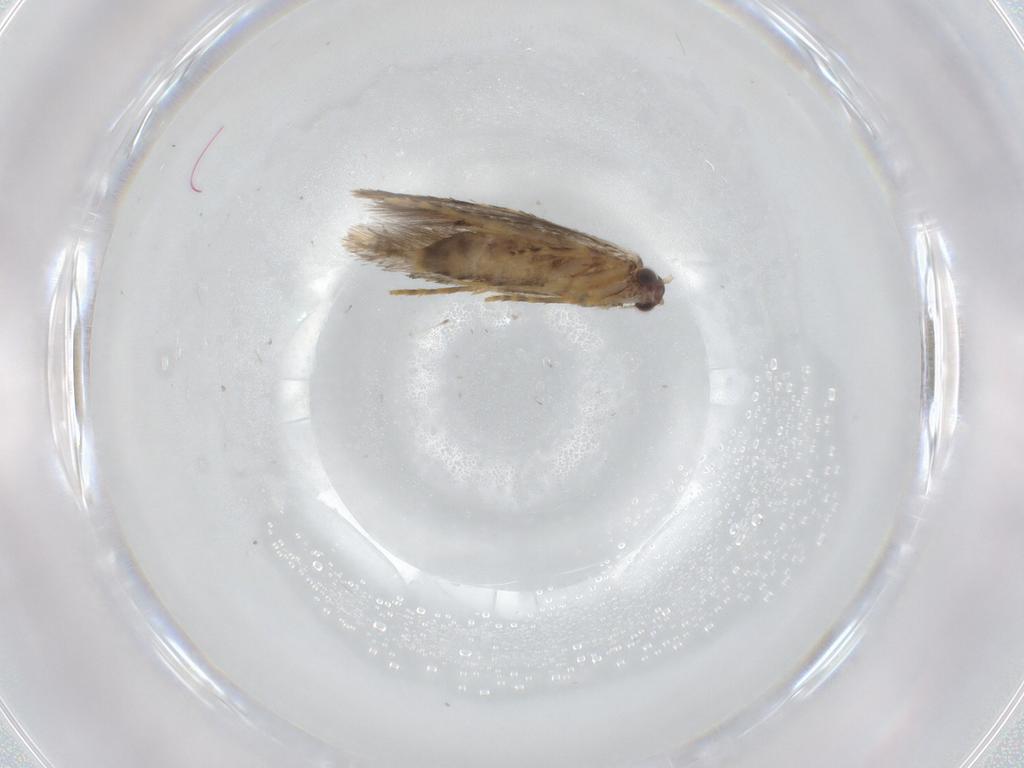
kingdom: Animalia
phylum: Arthropoda
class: Insecta
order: Lepidoptera
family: Tineidae
